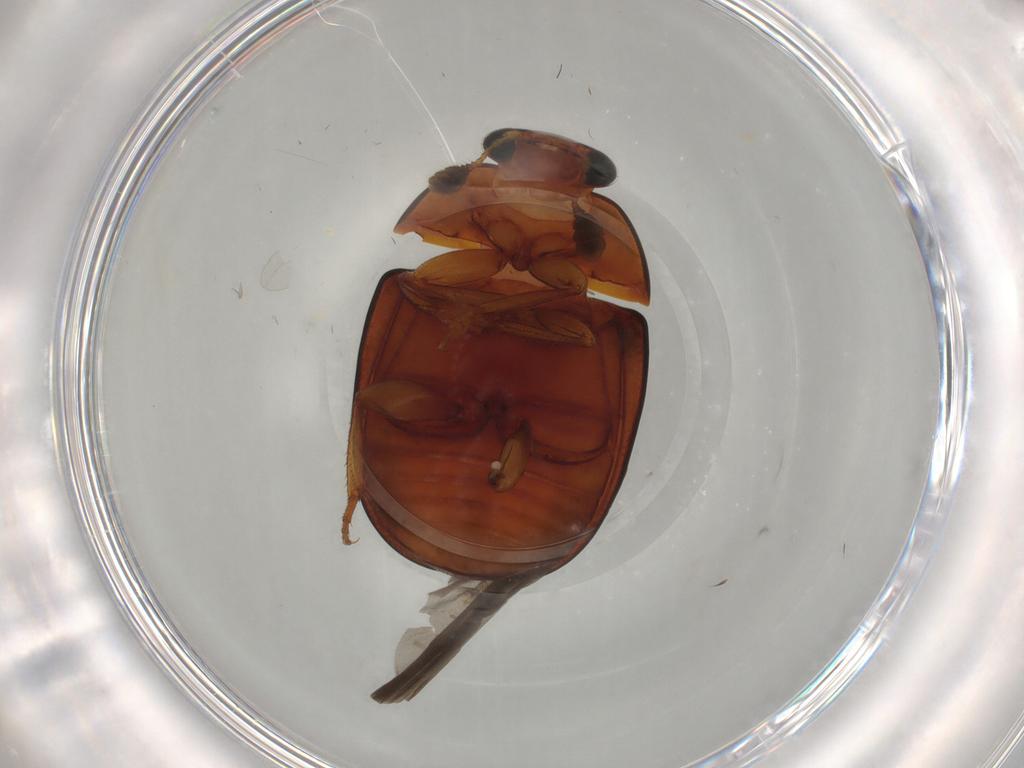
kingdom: Animalia
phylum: Arthropoda
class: Insecta
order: Coleoptera
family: Nitidulidae
